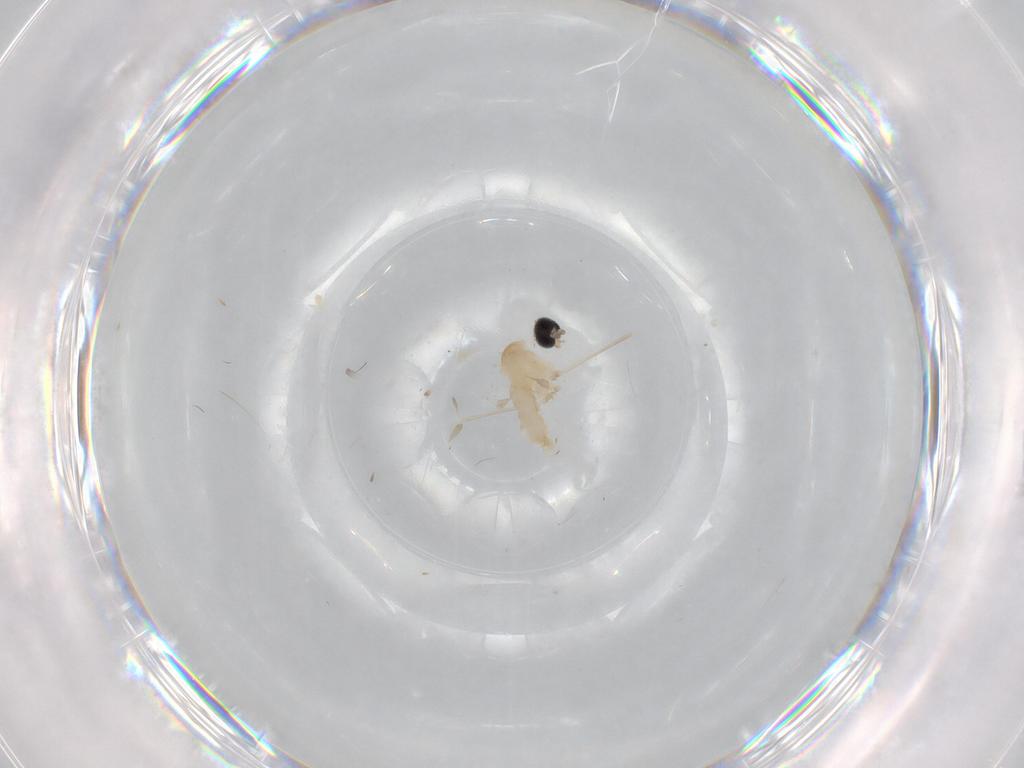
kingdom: Animalia
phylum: Arthropoda
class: Insecta
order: Diptera
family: Cecidomyiidae
